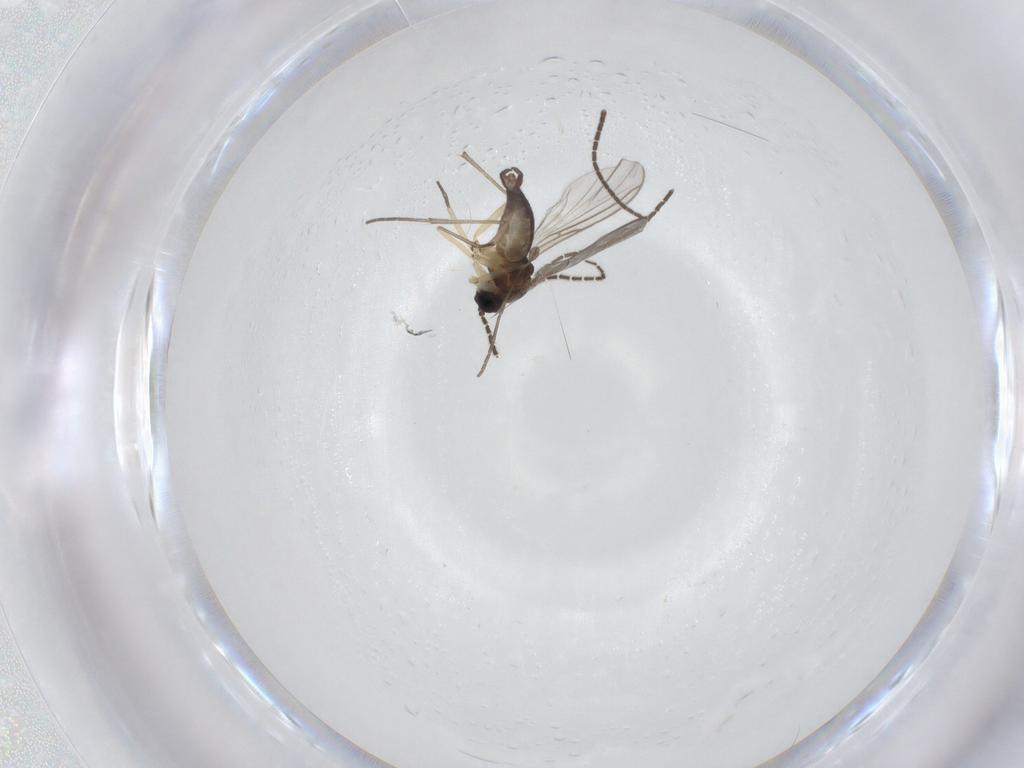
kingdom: Animalia
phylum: Arthropoda
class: Insecta
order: Diptera
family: Sciaridae
